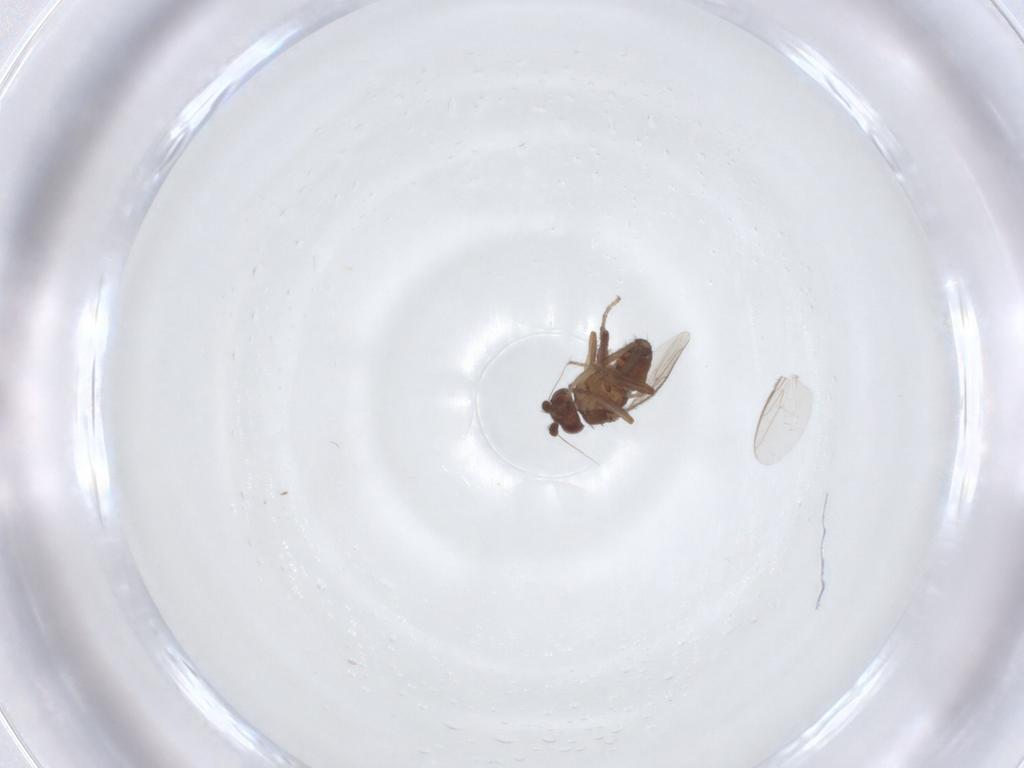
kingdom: Animalia
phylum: Arthropoda
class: Insecta
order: Diptera
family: Sphaeroceridae
